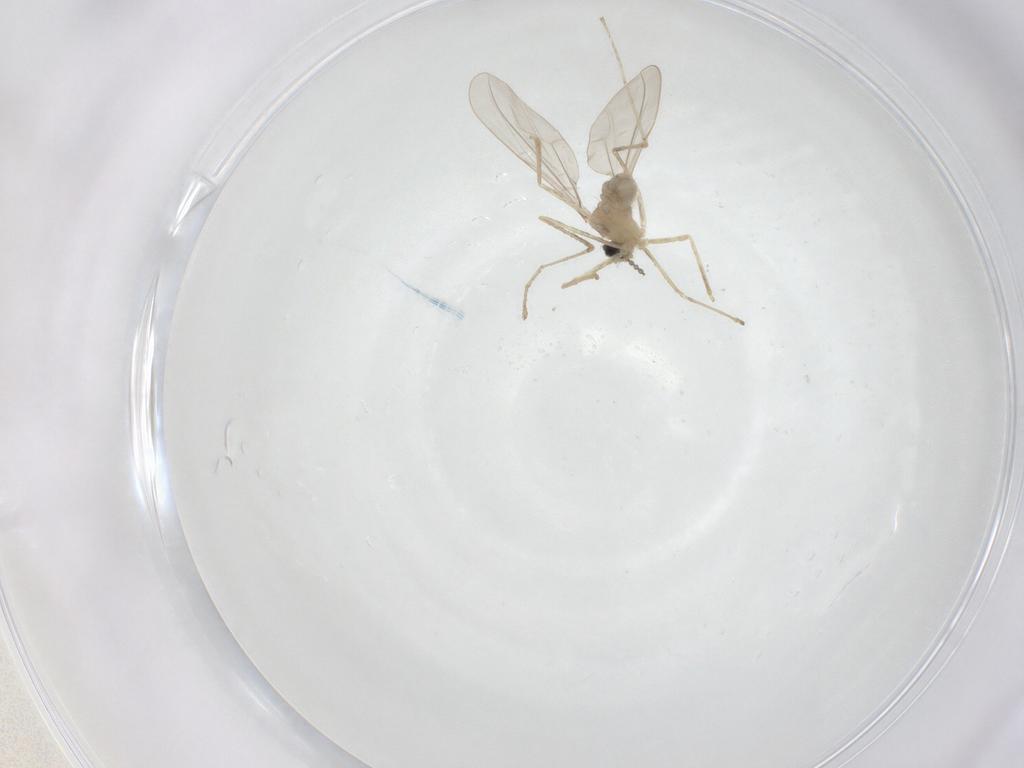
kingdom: Animalia
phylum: Arthropoda
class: Insecta
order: Diptera
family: Cecidomyiidae
